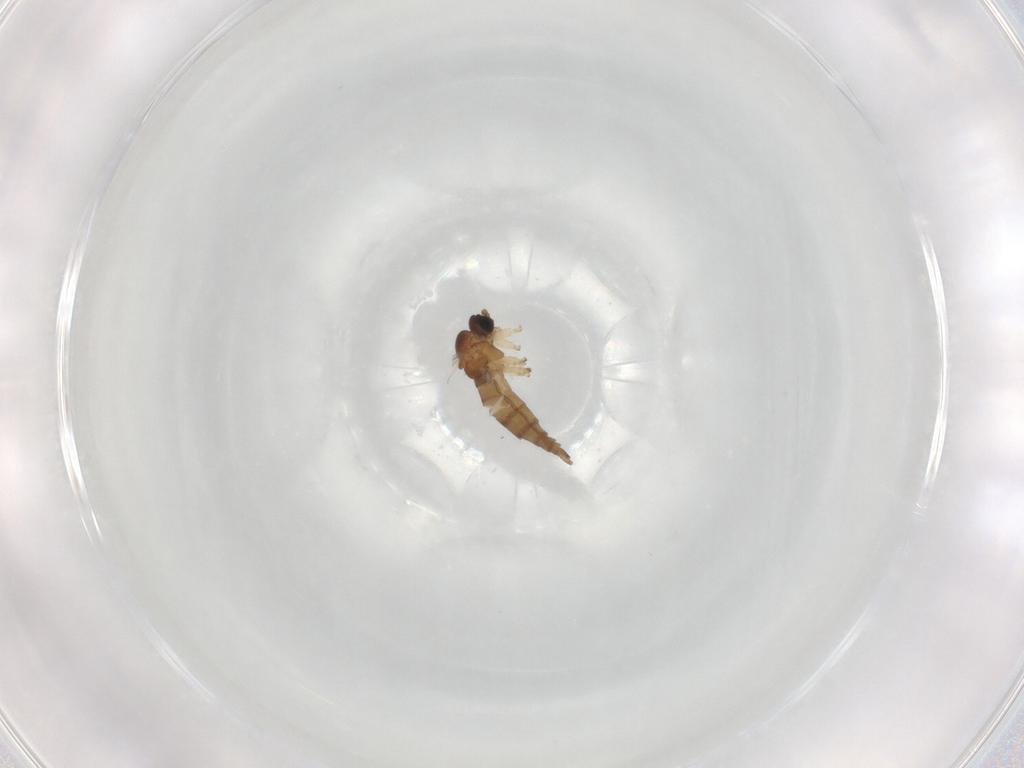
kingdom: Animalia
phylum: Arthropoda
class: Insecta
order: Diptera
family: Sciaridae
